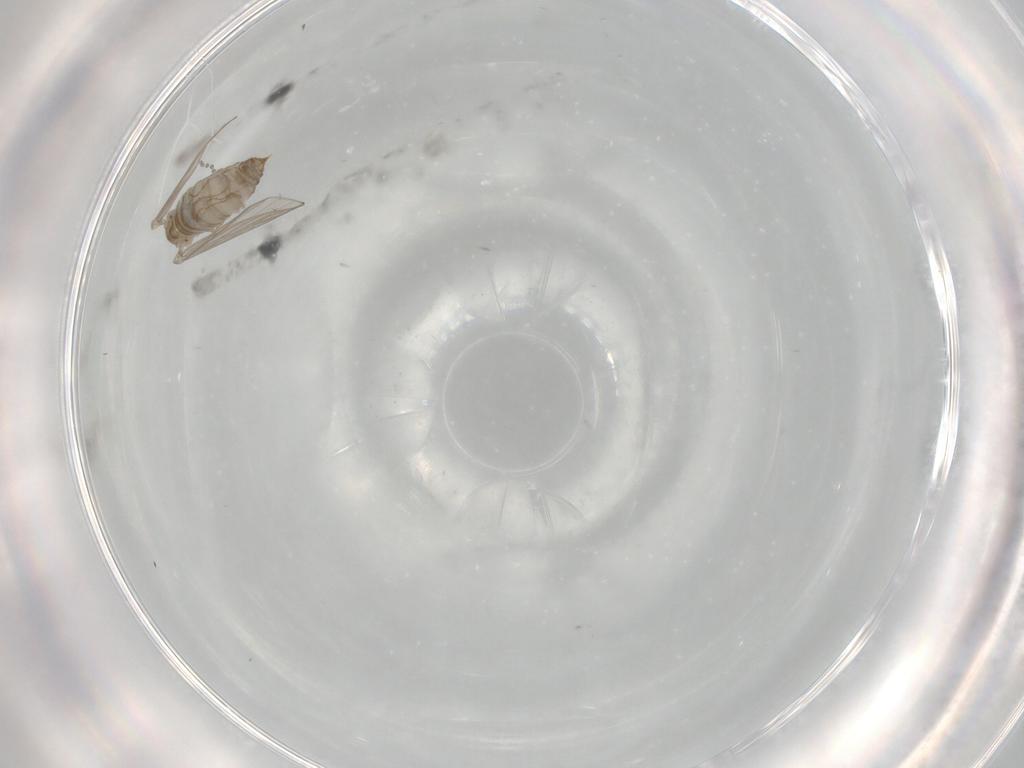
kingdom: Animalia
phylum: Arthropoda
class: Insecta
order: Diptera
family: Psychodidae
